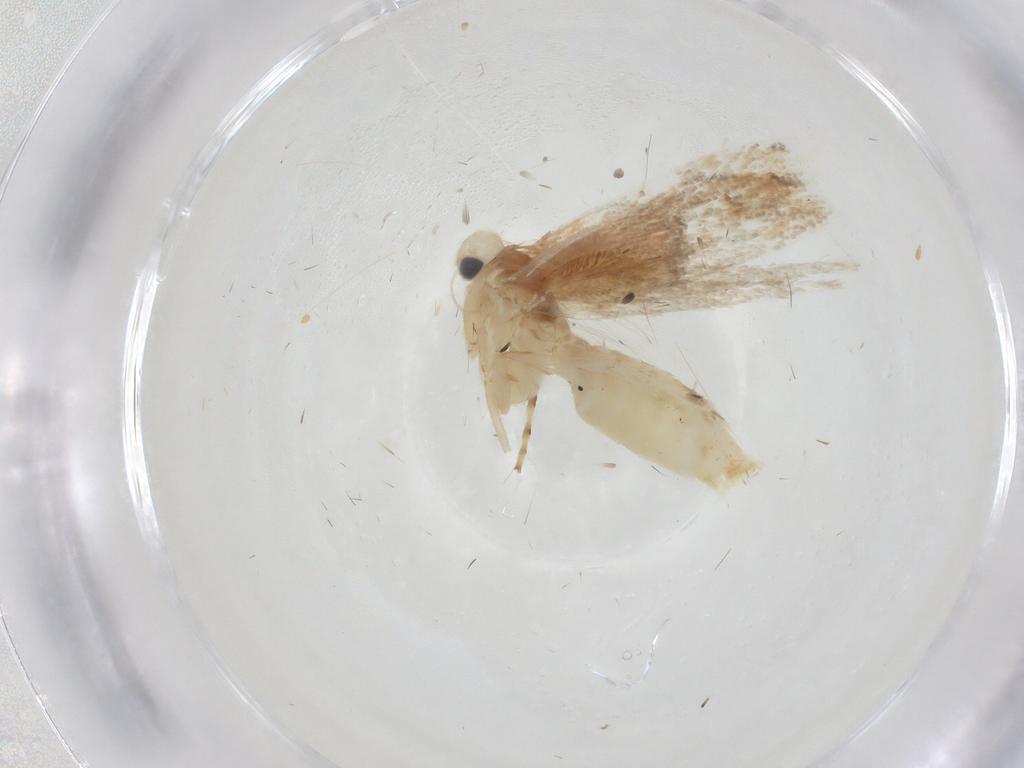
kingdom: Animalia
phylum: Arthropoda
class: Insecta
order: Lepidoptera
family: Gracillariidae
